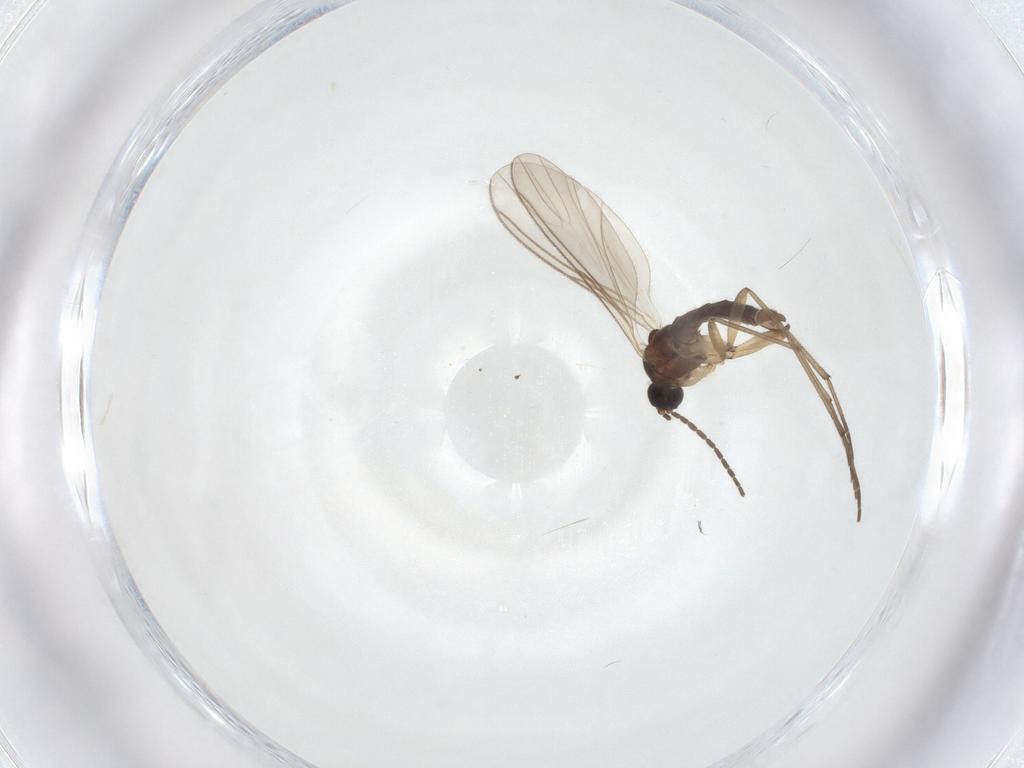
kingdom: Animalia
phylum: Arthropoda
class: Insecta
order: Diptera
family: Sciaridae
